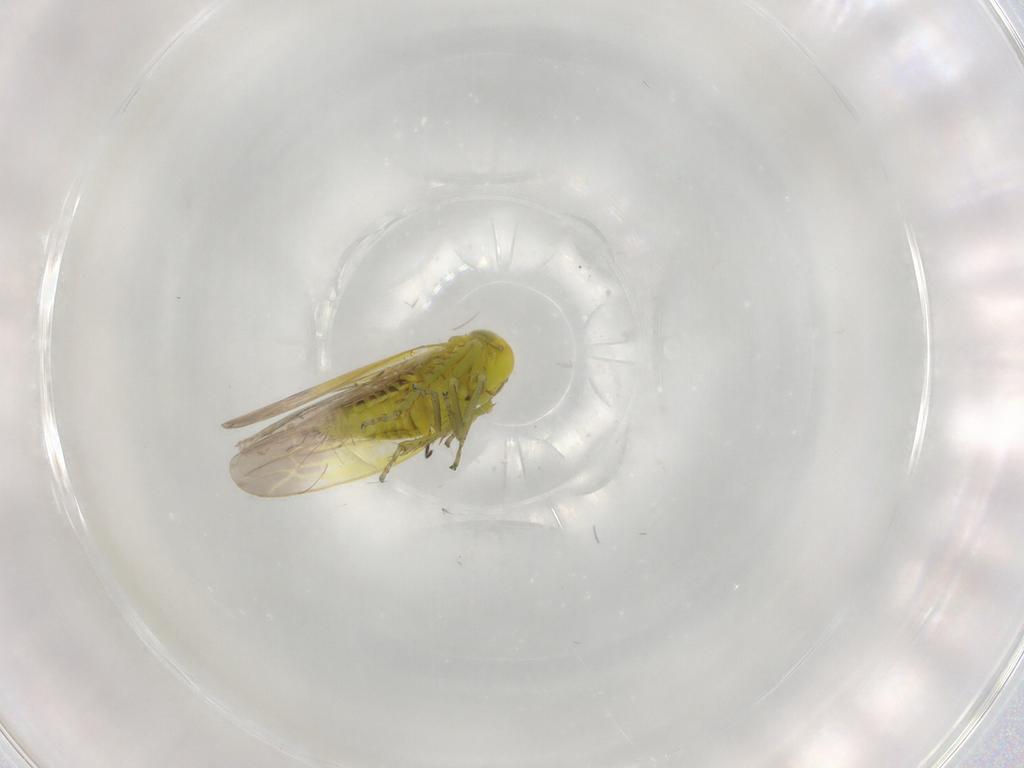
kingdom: Animalia
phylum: Arthropoda
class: Insecta
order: Hemiptera
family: Cicadellidae
